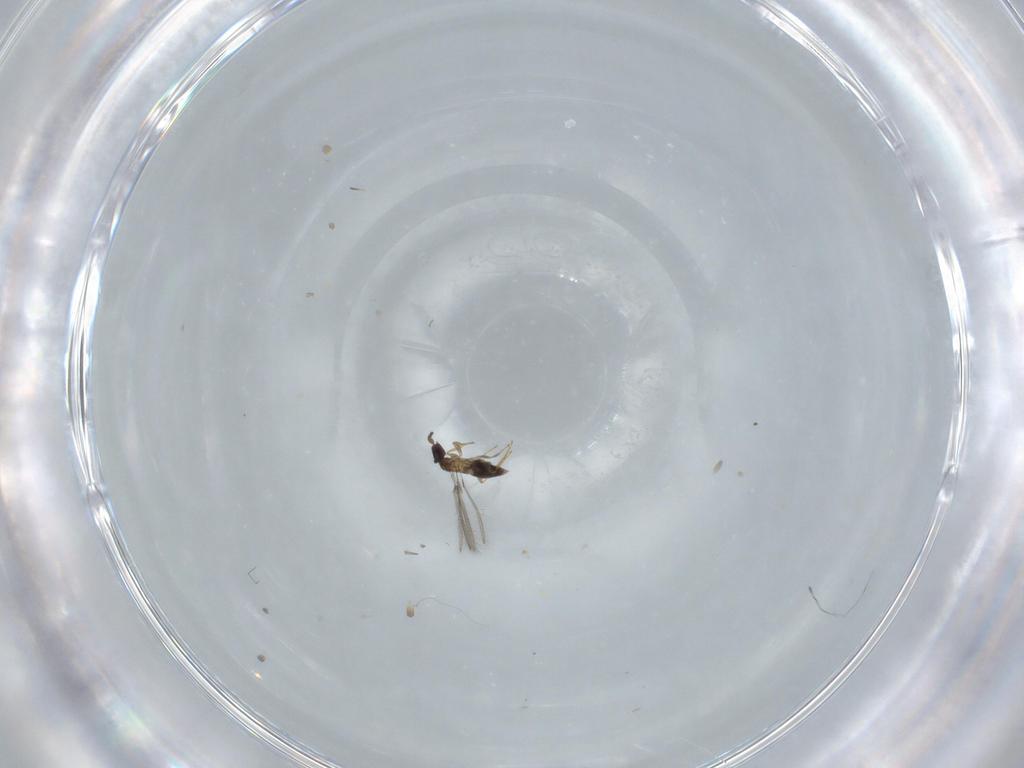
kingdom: Animalia
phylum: Arthropoda
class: Insecta
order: Hymenoptera
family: Mymaridae
